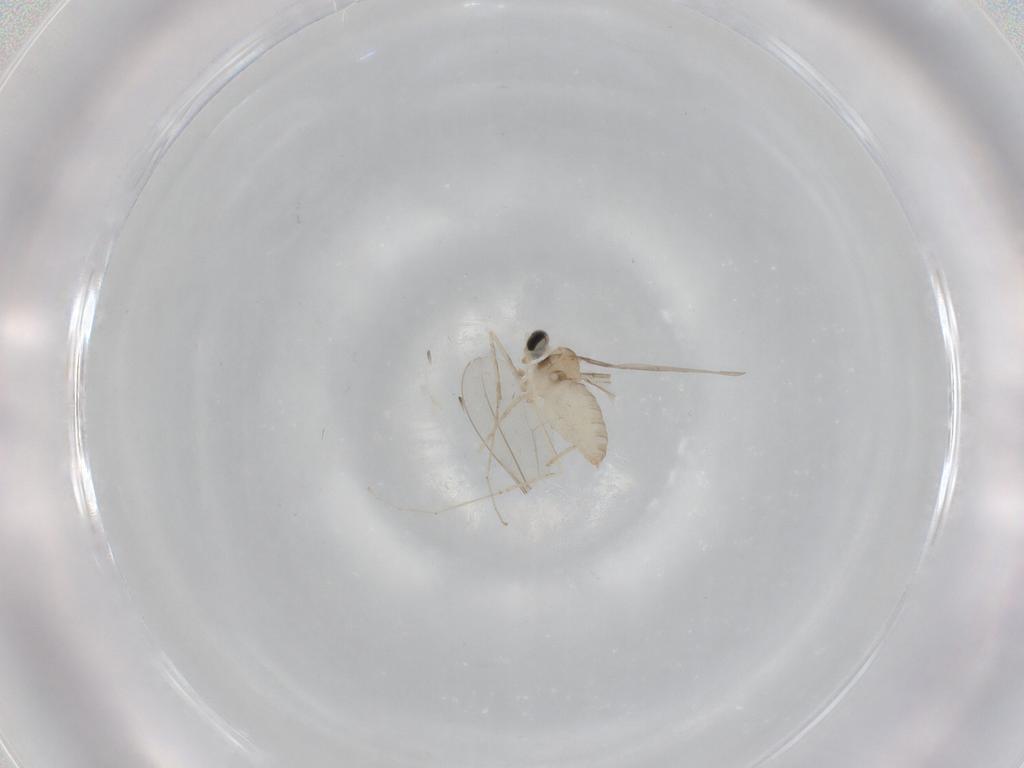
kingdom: Animalia
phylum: Arthropoda
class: Insecta
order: Diptera
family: Cecidomyiidae
